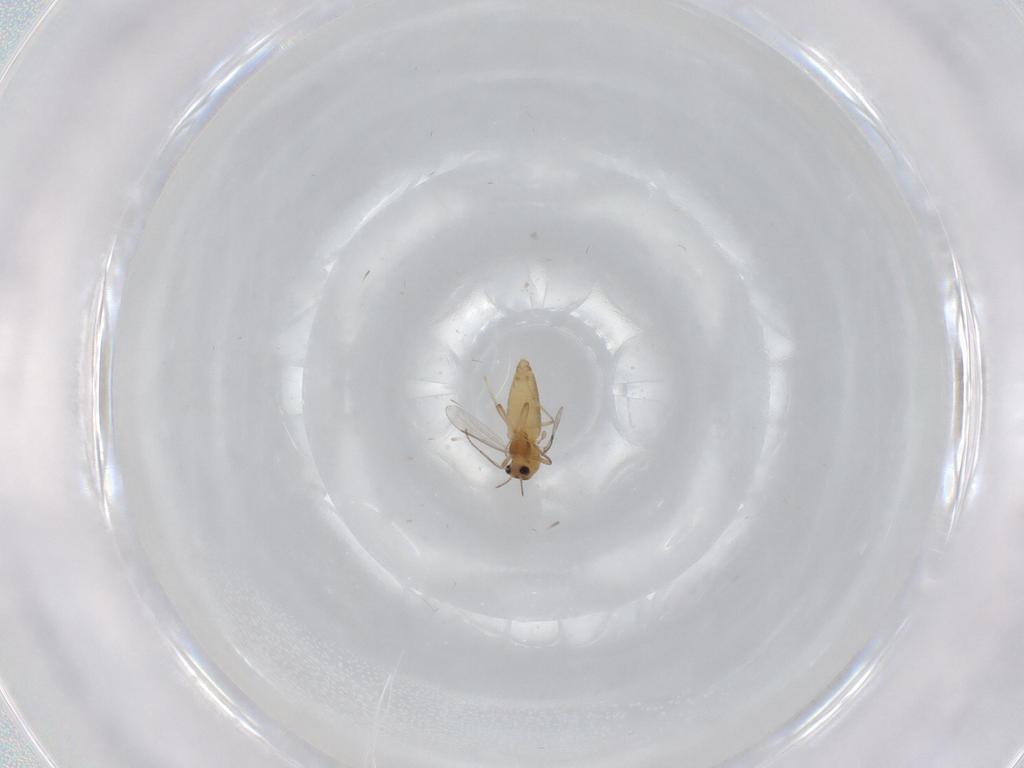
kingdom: Animalia
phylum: Arthropoda
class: Insecta
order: Diptera
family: Chironomidae
